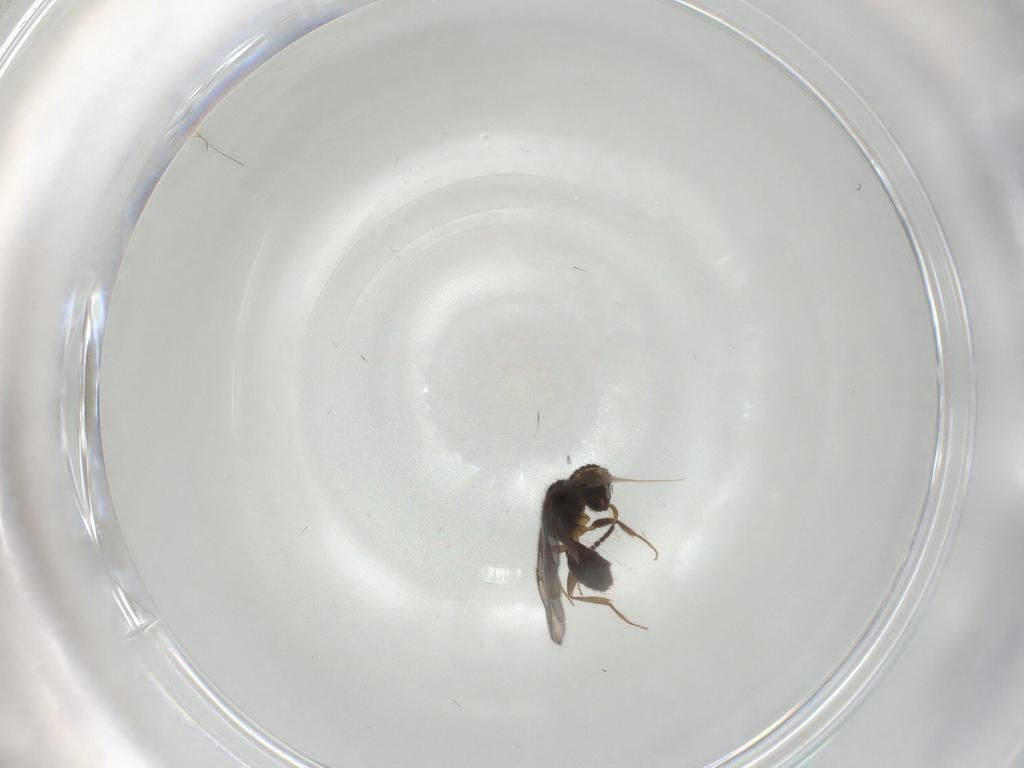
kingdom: Animalia
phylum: Arthropoda
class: Insecta
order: Hymenoptera
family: Bethylidae
